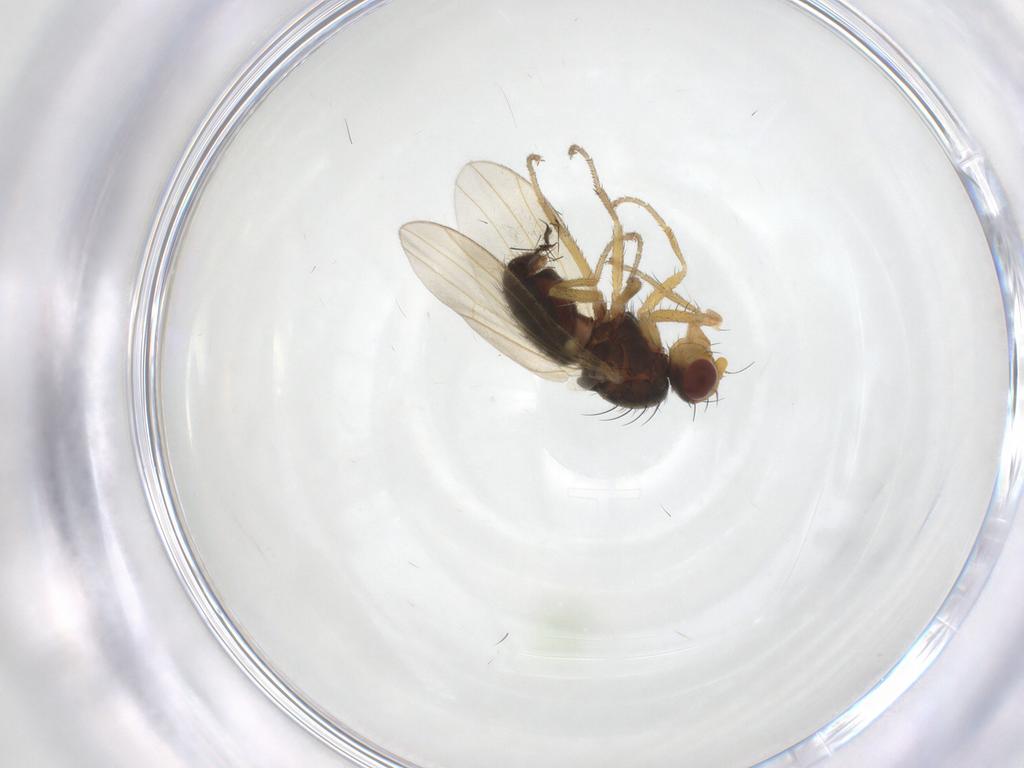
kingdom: Animalia
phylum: Arthropoda
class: Insecta
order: Diptera
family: Heleomyzidae
